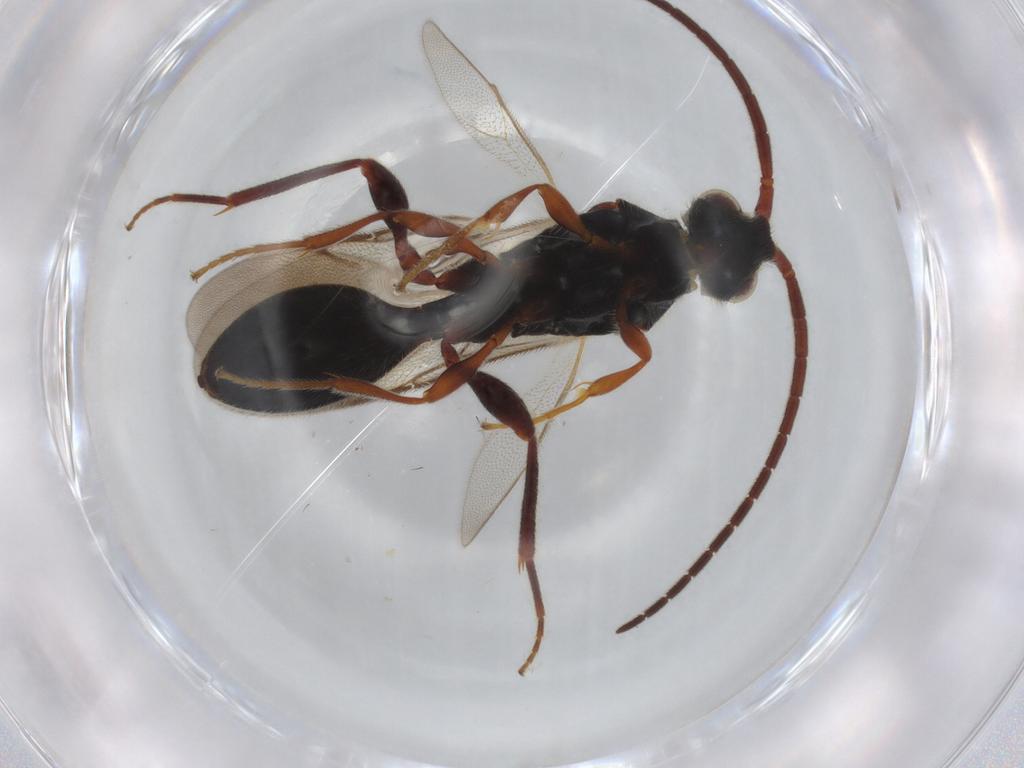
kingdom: Animalia
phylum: Arthropoda
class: Insecta
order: Hymenoptera
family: Diapriidae
